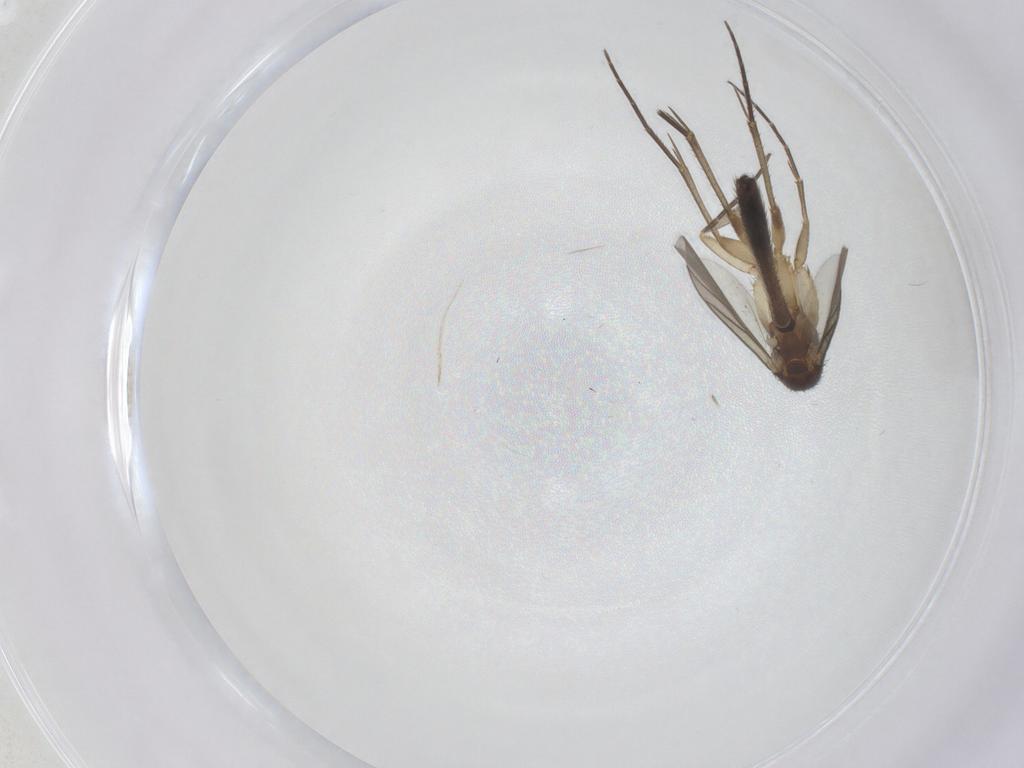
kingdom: Animalia
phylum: Arthropoda
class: Insecta
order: Diptera
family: Mycetophilidae
